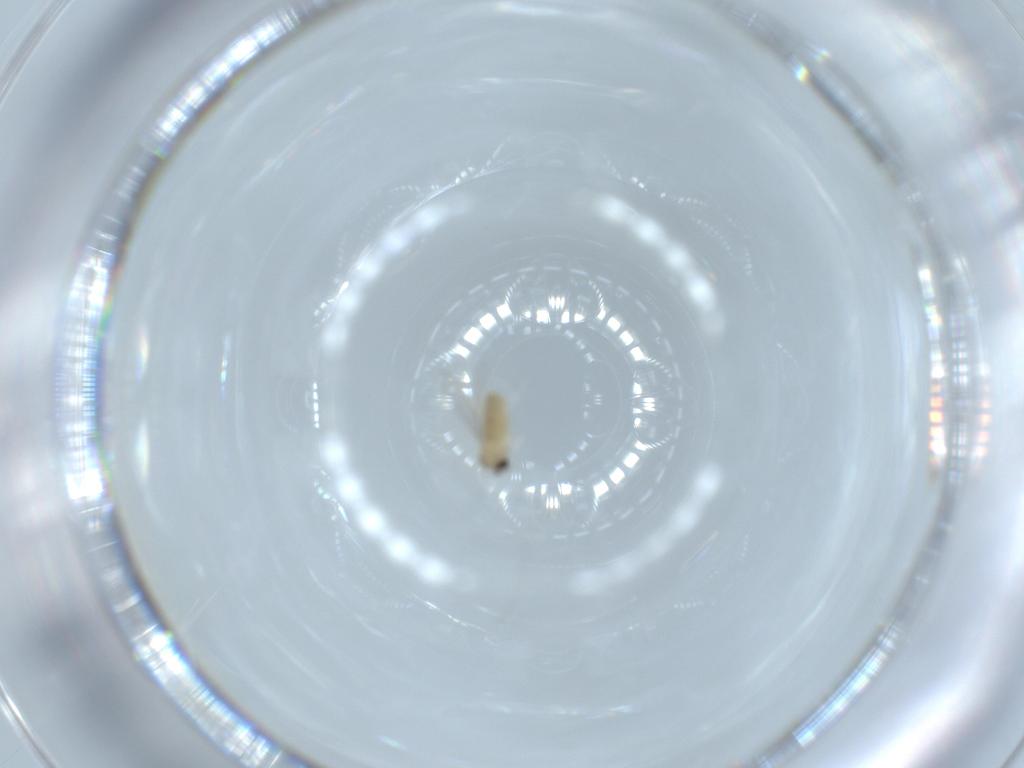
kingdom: Animalia
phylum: Arthropoda
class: Insecta
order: Diptera
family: Cecidomyiidae
